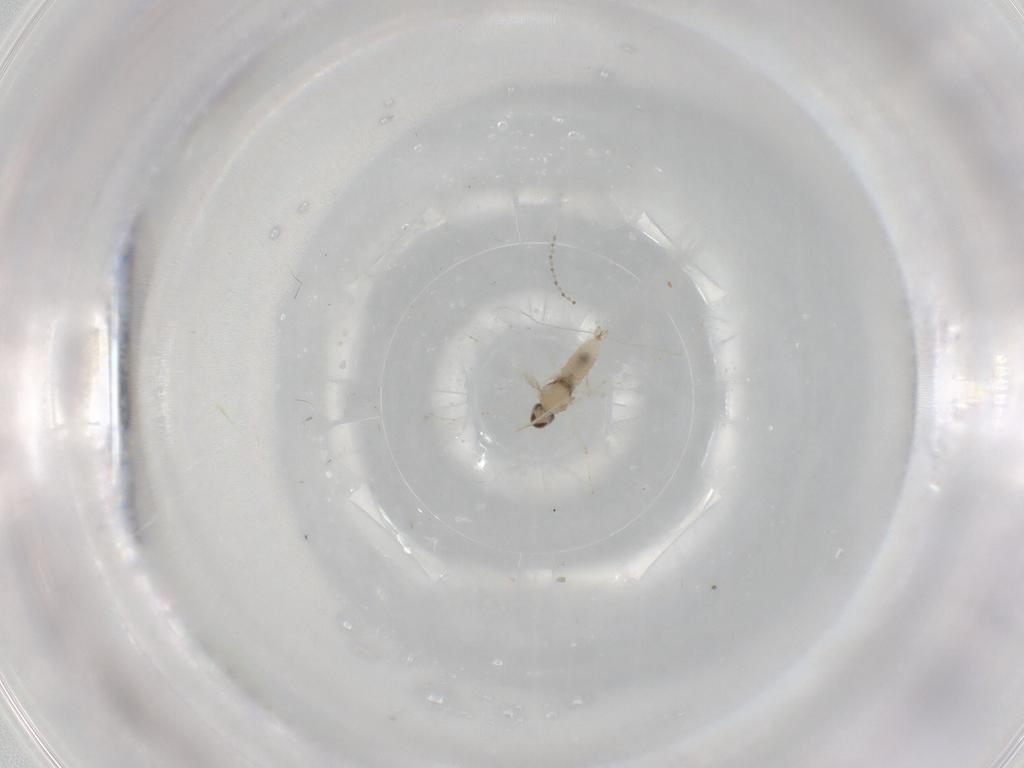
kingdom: Animalia
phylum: Arthropoda
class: Insecta
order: Diptera
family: Cecidomyiidae
